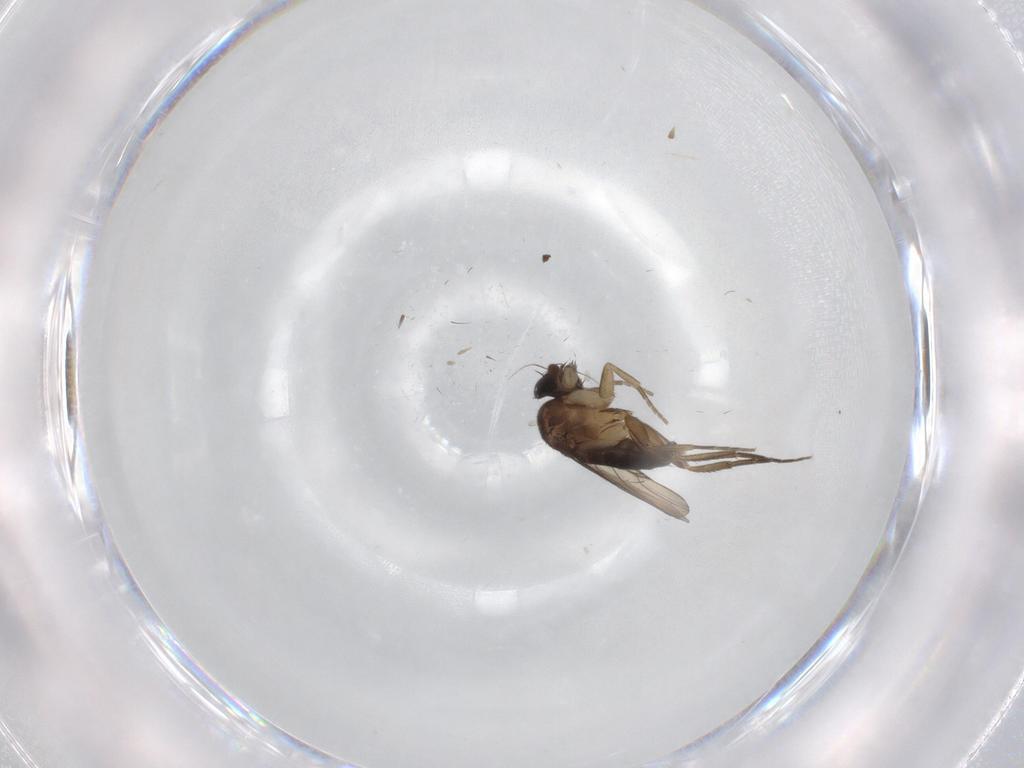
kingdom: Animalia
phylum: Arthropoda
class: Insecta
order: Diptera
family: Phoridae
